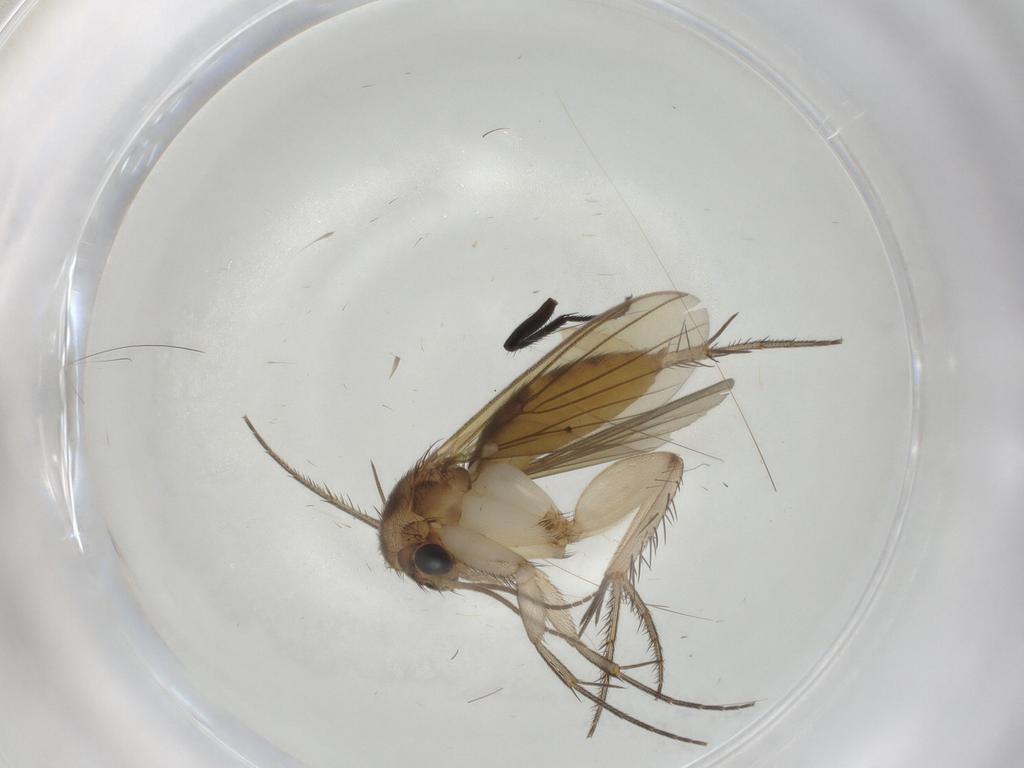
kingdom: Animalia
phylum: Arthropoda
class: Insecta
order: Diptera
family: Mycetophilidae
